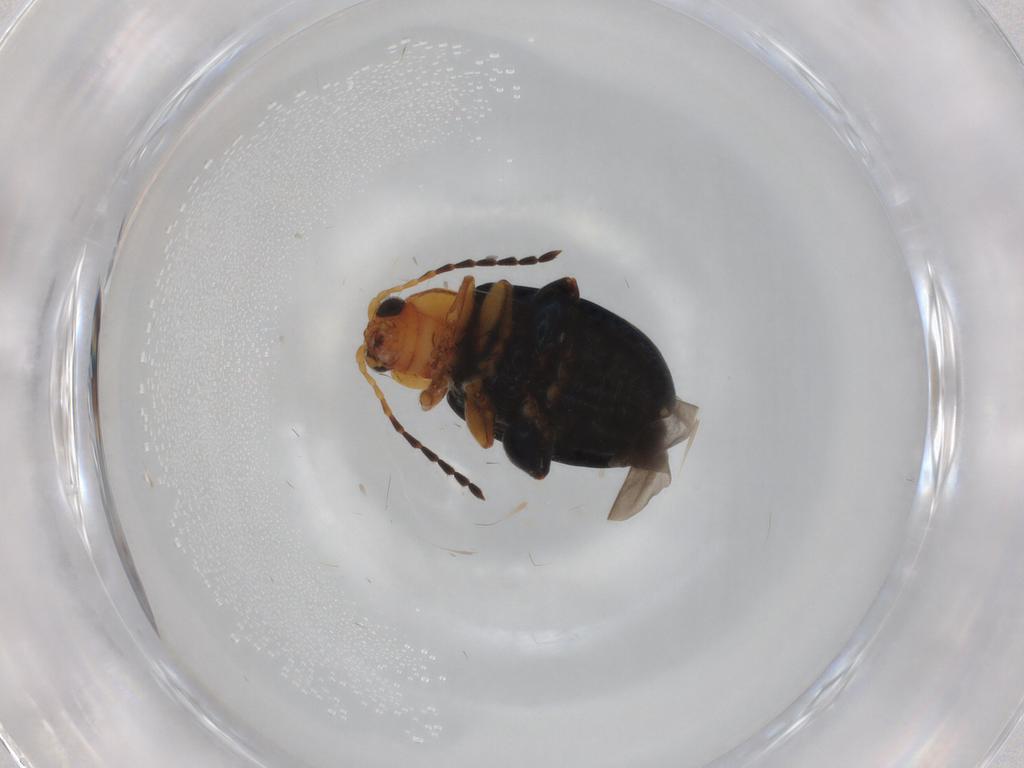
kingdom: Animalia
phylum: Arthropoda
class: Insecta
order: Coleoptera
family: Chrysomelidae
